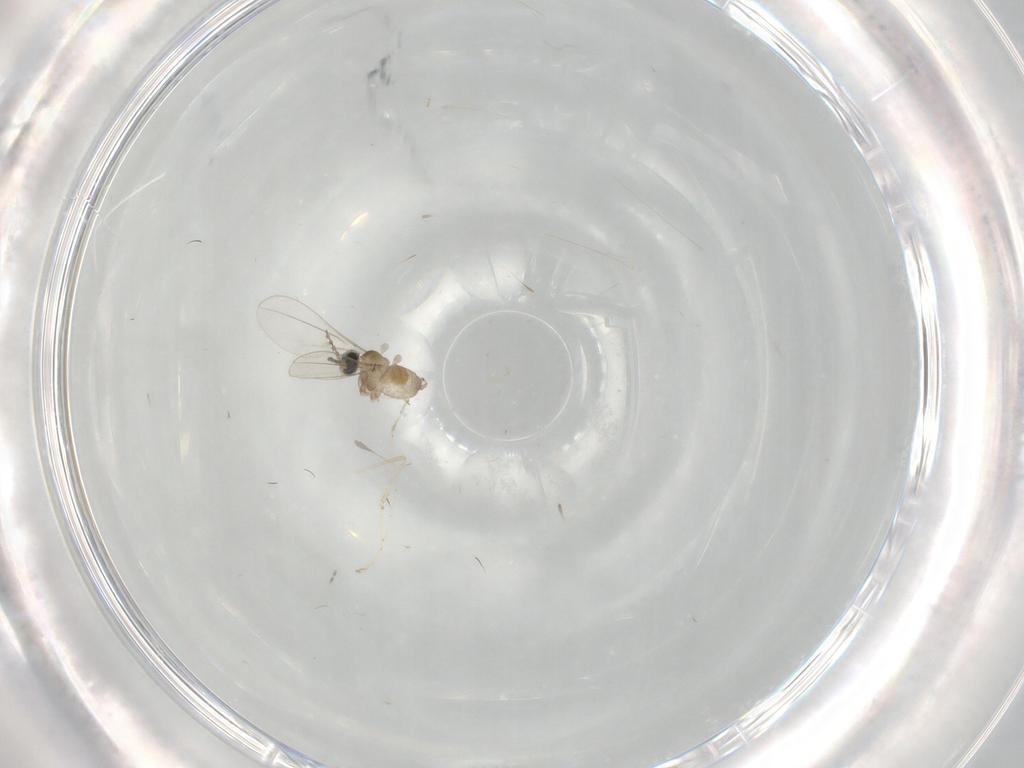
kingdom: Animalia
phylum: Arthropoda
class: Insecta
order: Diptera
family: Cecidomyiidae
